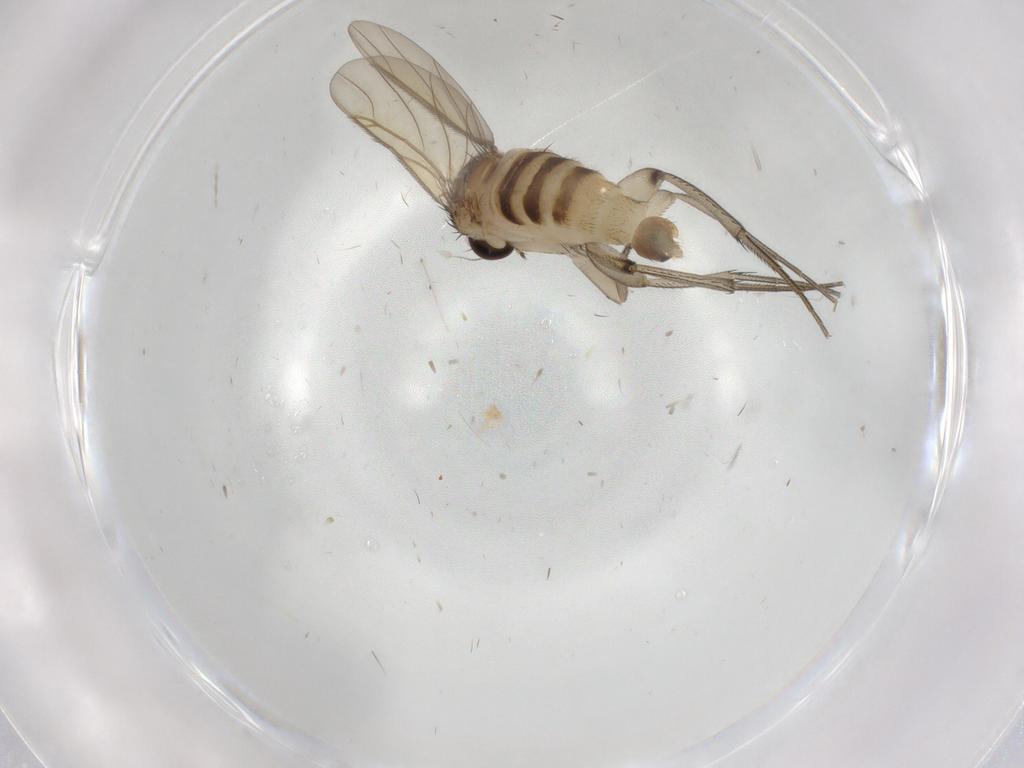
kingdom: Animalia
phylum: Arthropoda
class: Insecta
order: Diptera
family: Phoridae
